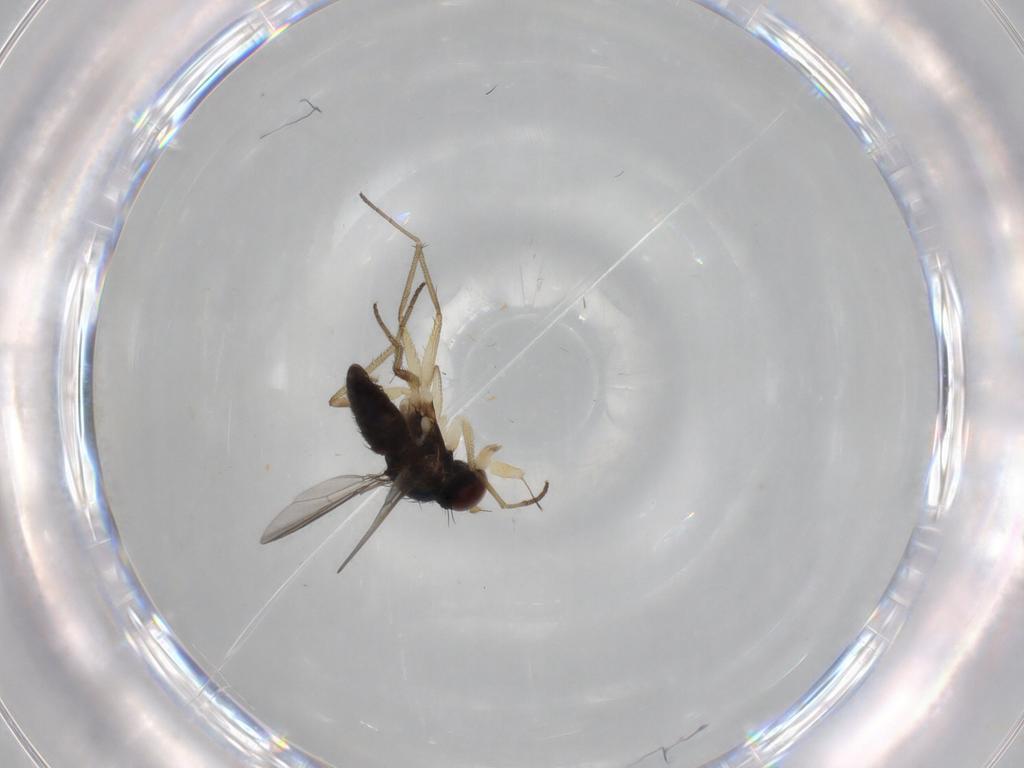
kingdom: Animalia
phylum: Arthropoda
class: Insecta
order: Diptera
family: Dolichopodidae
